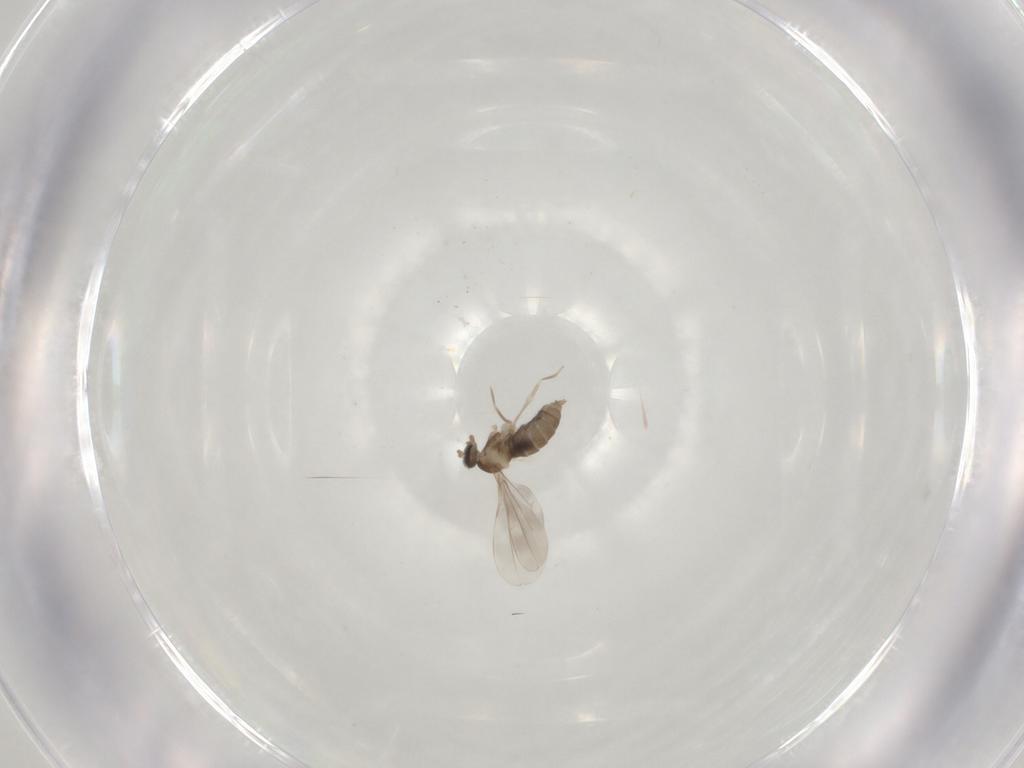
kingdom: Animalia
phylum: Arthropoda
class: Insecta
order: Diptera
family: Cecidomyiidae
